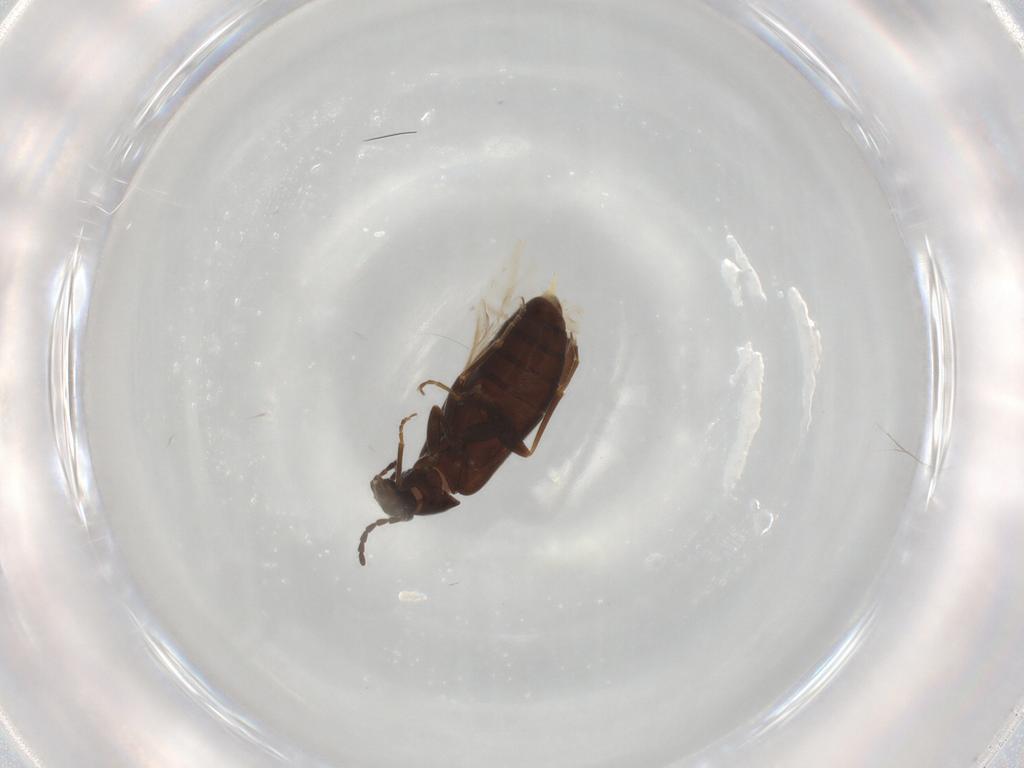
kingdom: Animalia
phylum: Arthropoda
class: Insecta
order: Coleoptera
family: Scraptiidae
